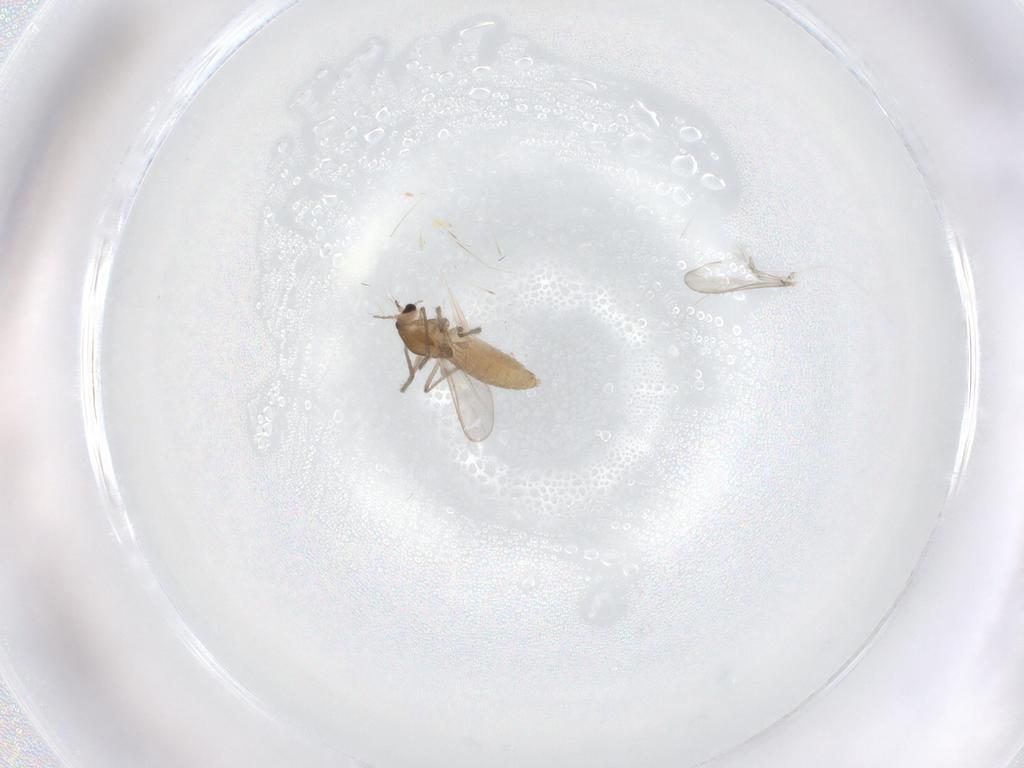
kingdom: Animalia
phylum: Arthropoda
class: Insecta
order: Diptera
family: Chironomidae
